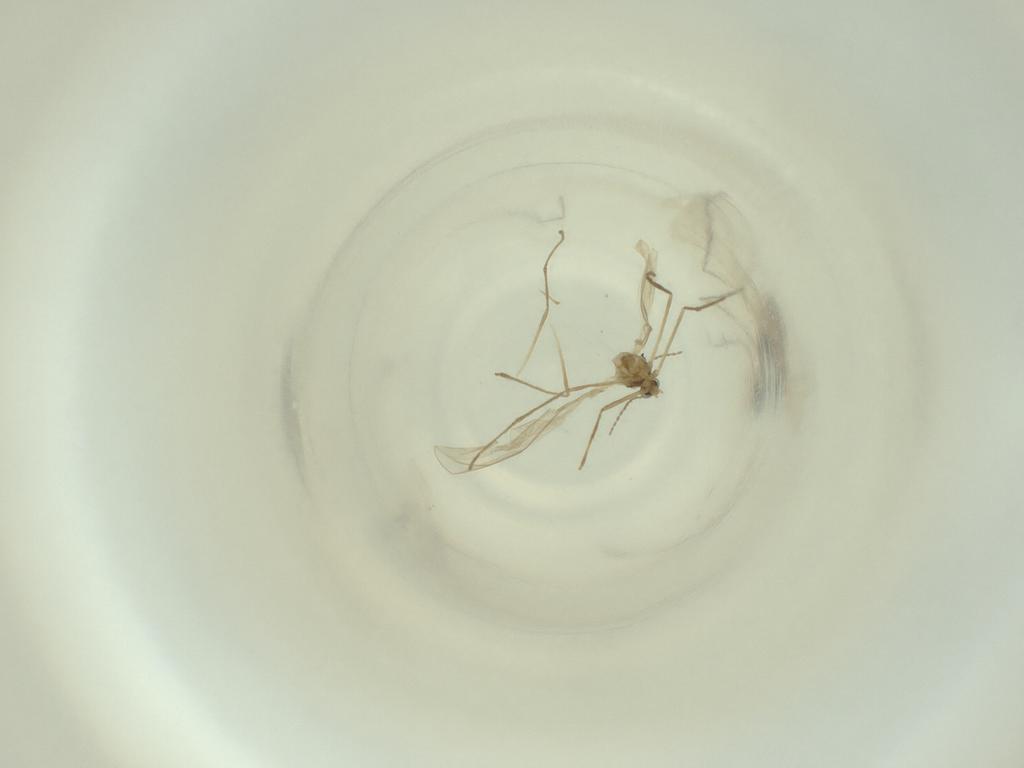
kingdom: Animalia
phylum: Arthropoda
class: Insecta
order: Diptera
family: Cecidomyiidae
